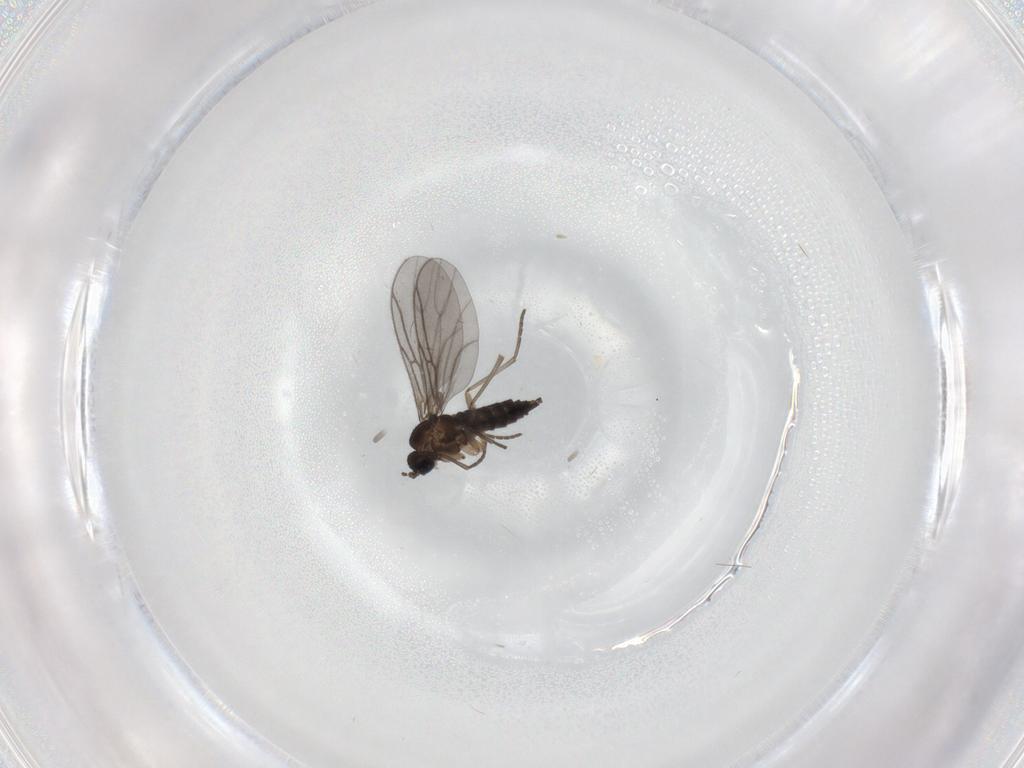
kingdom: Animalia
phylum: Arthropoda
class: Insecta
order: Diptera
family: Sciaridae
